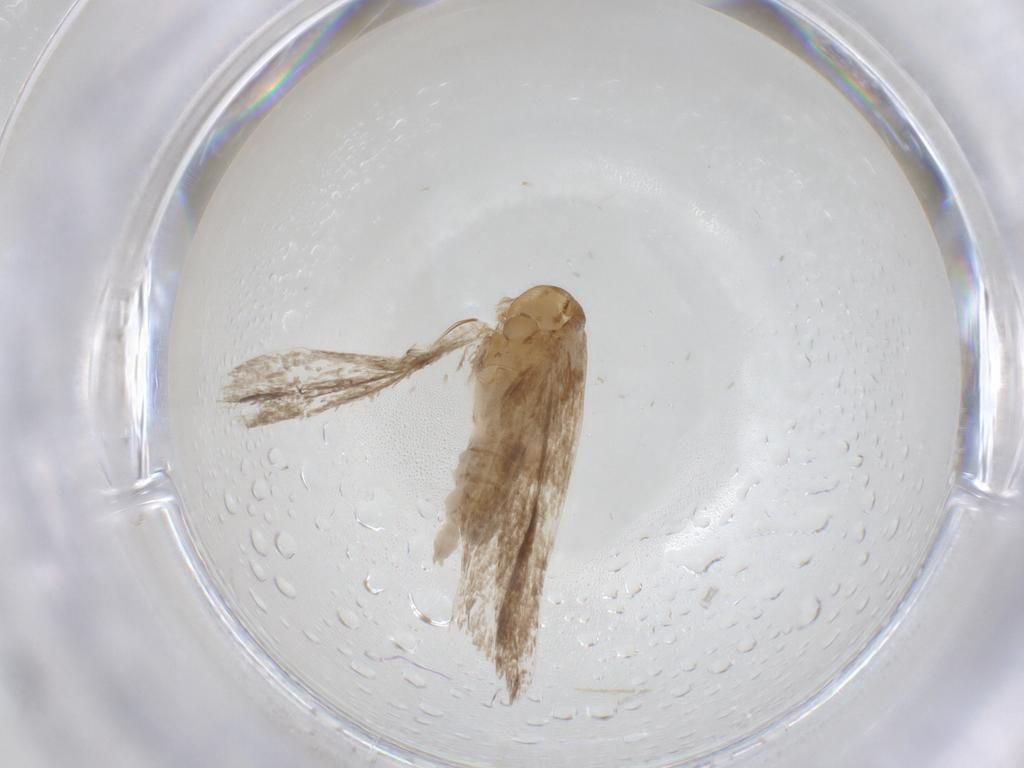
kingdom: Animalia
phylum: Arthropoda
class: Insecta
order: Lepidoptera
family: Gelechiidae
